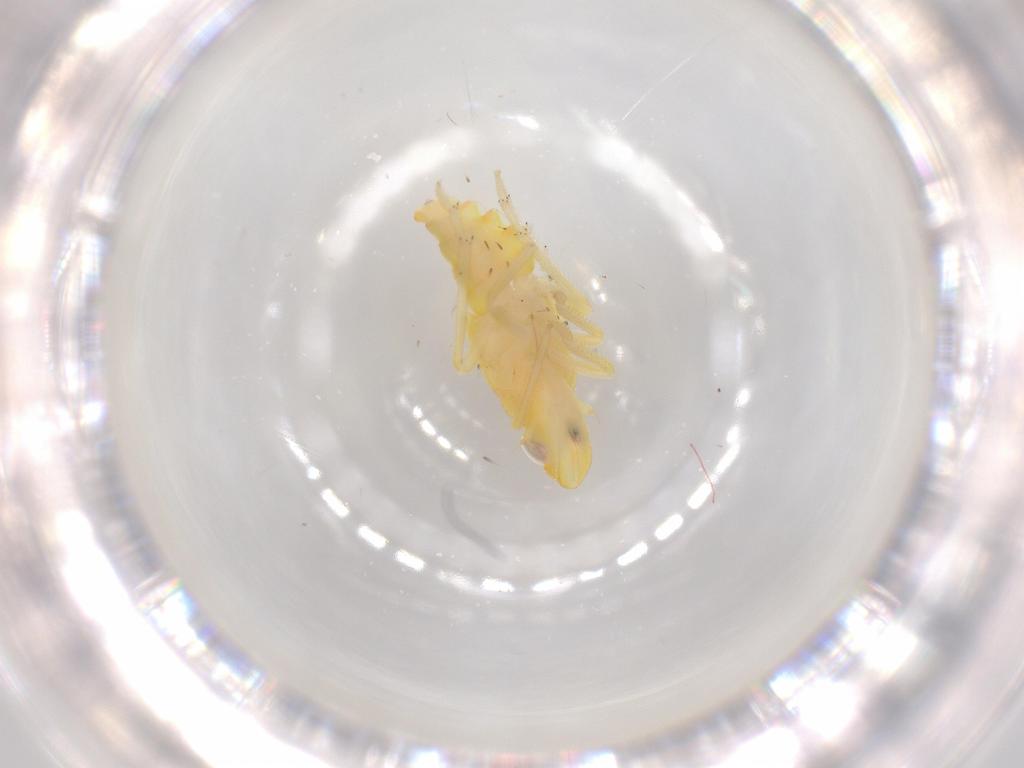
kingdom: Animalia
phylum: Arthropoda
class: Insecta
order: Hemiptera
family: Tropiduchidae
